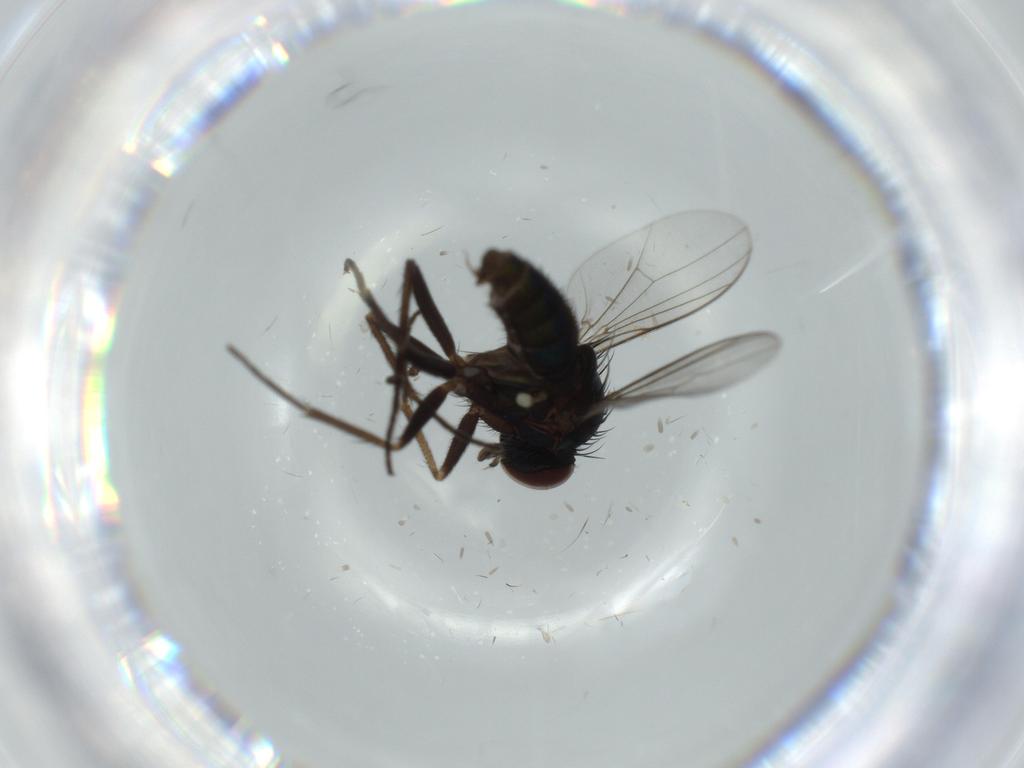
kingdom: Animalia
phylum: Arthropoda
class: Insecta
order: Diptera
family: Dolichopodidae
